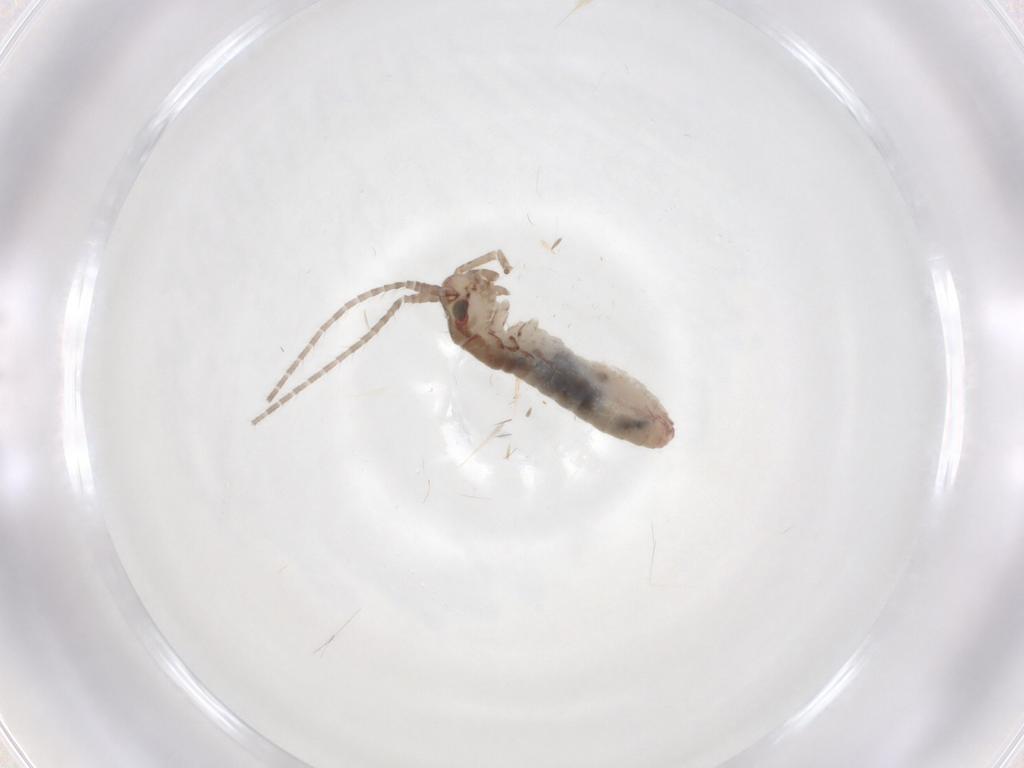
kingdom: Animalia
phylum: Arthropoda
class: Insecta
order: Orthoptera
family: Mogoplistidae
